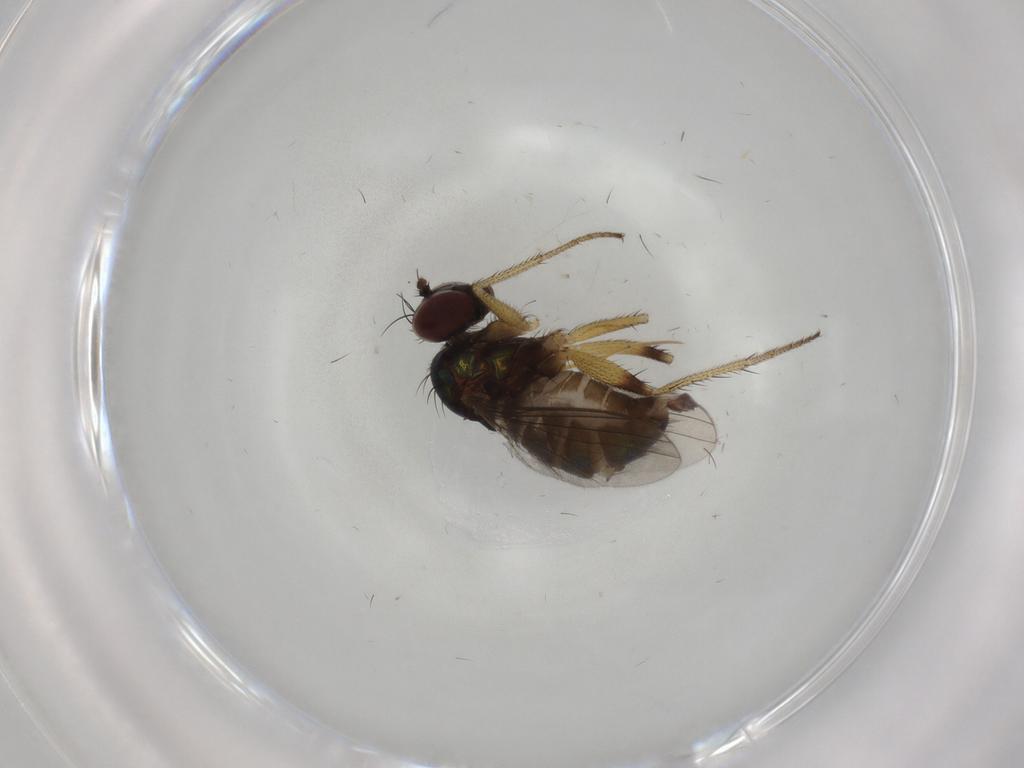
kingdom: Animalia
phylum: Arthropoda
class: Insecta
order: Diptera
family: Dolichopodidae
